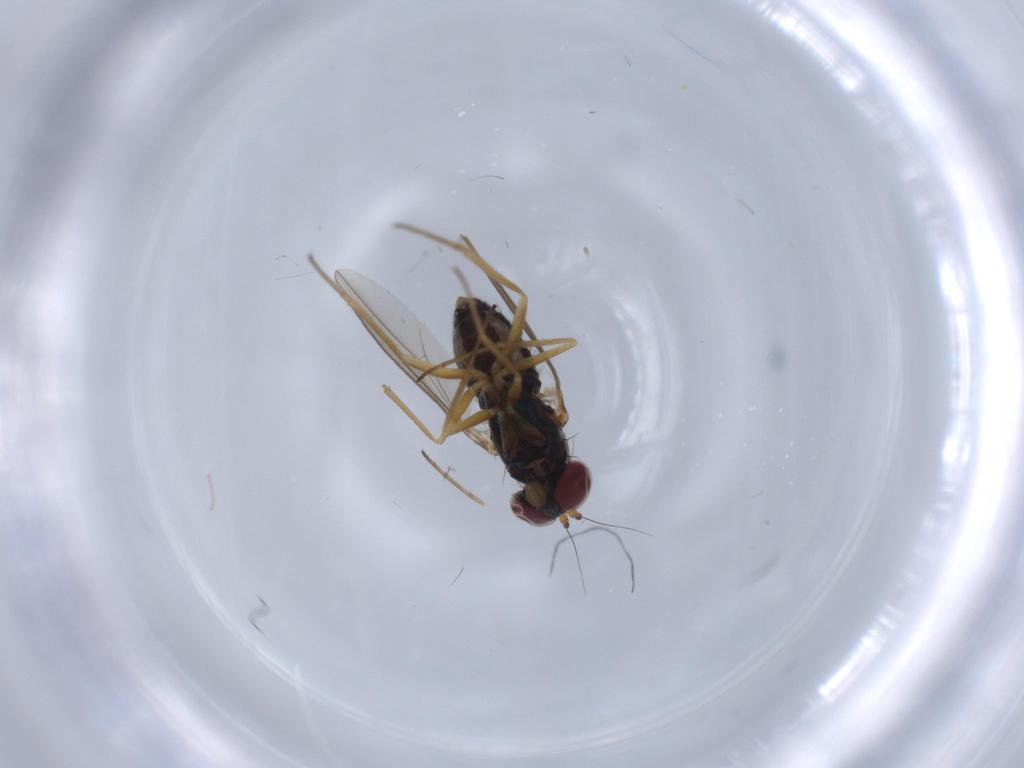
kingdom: Animalia
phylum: Arthropoda
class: Insecta
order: Diptera
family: Dolichopodidae
